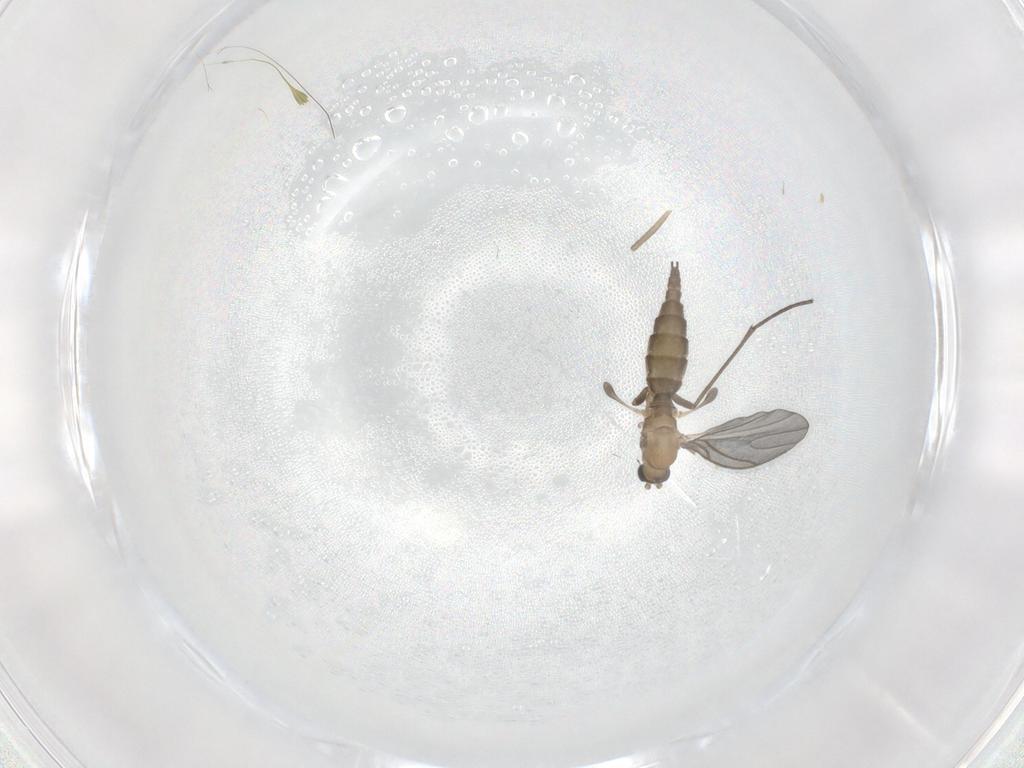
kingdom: Animalia
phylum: Arthropoda
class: Insecta
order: Diptera
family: Sciaridae
